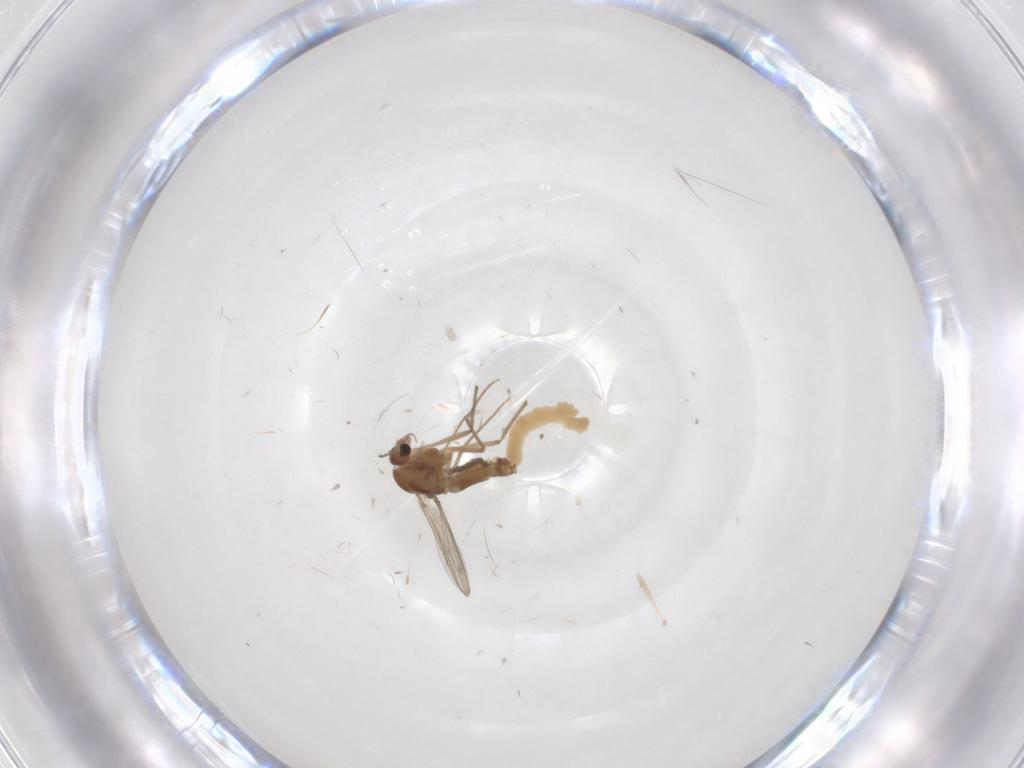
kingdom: Animalia
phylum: Arthropoda
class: Insecta
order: Diptera
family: Chironomidae
